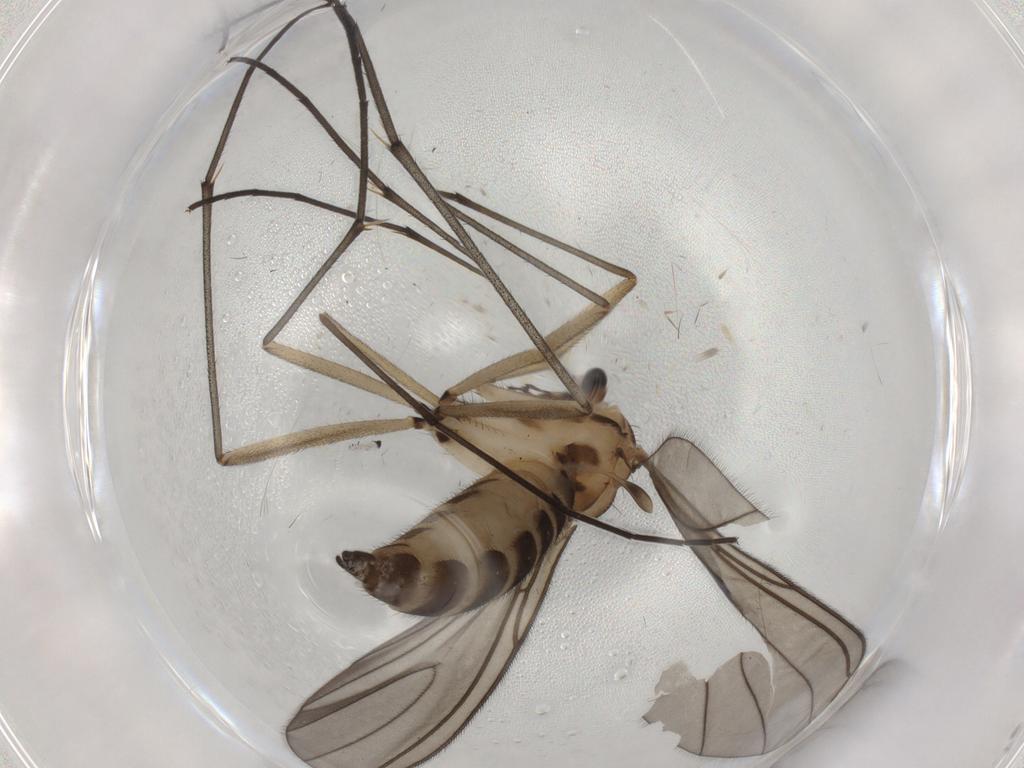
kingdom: Animalia
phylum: Arthropoda
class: Insecta
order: Diptera
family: Sciaridae
